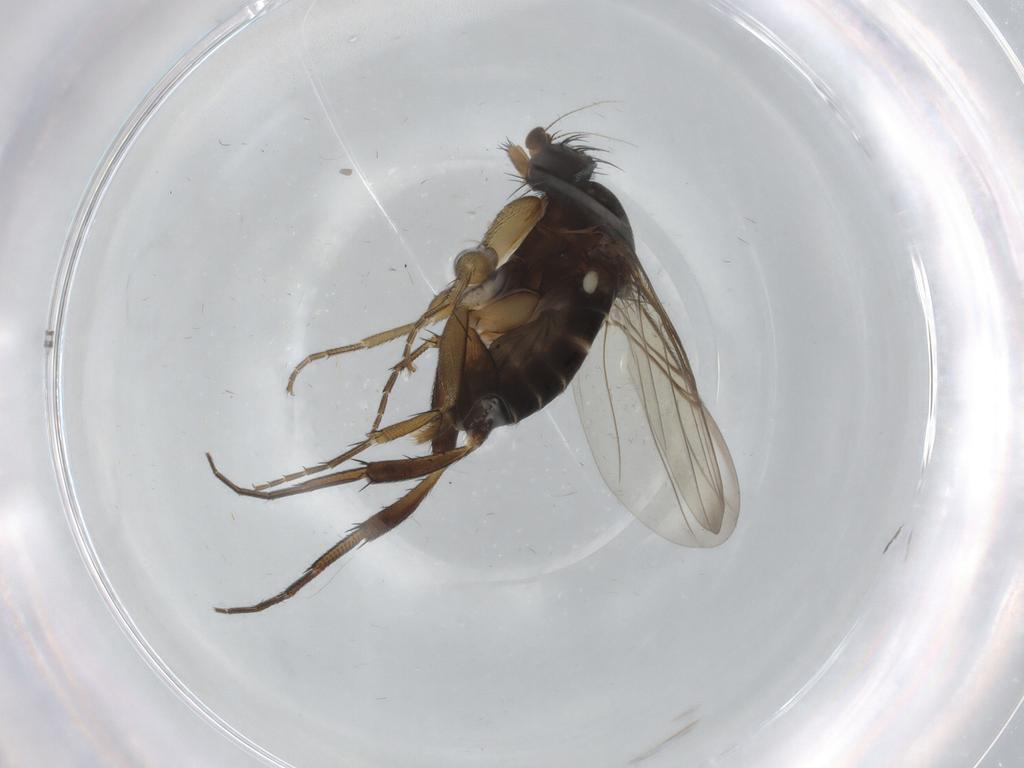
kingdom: Animalia
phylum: Arthropoda
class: Insecta
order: Diptera
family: Phoridae
